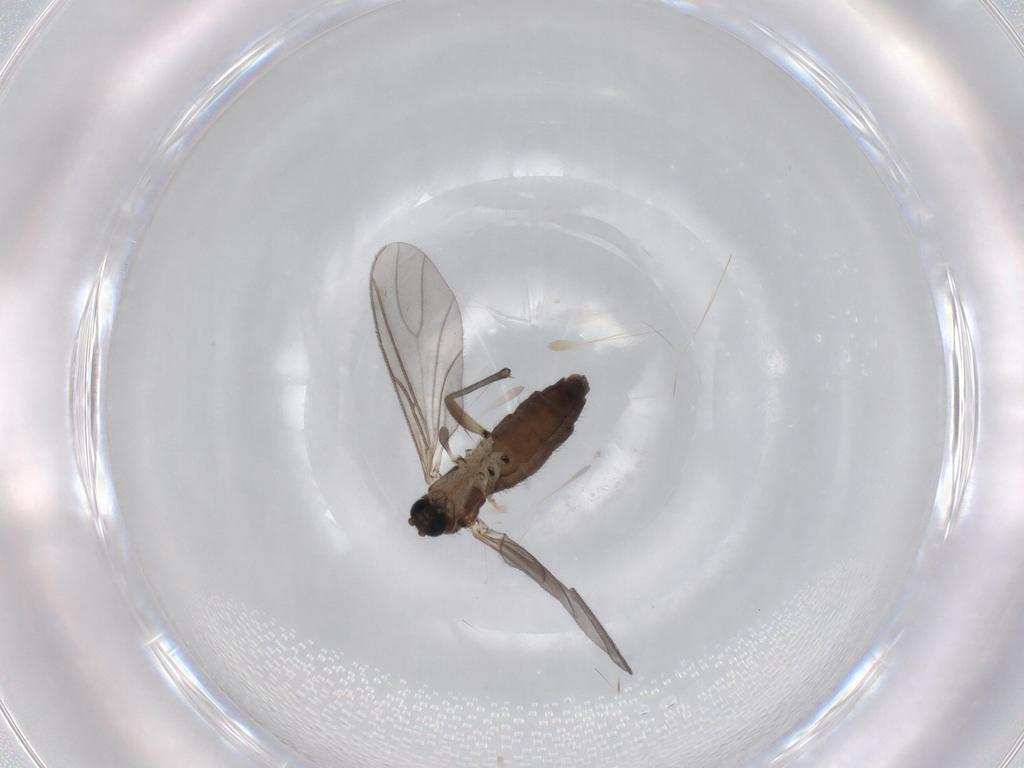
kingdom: Animalia
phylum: Arthropoda
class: Insecta
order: Diptera
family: Sciaridae
